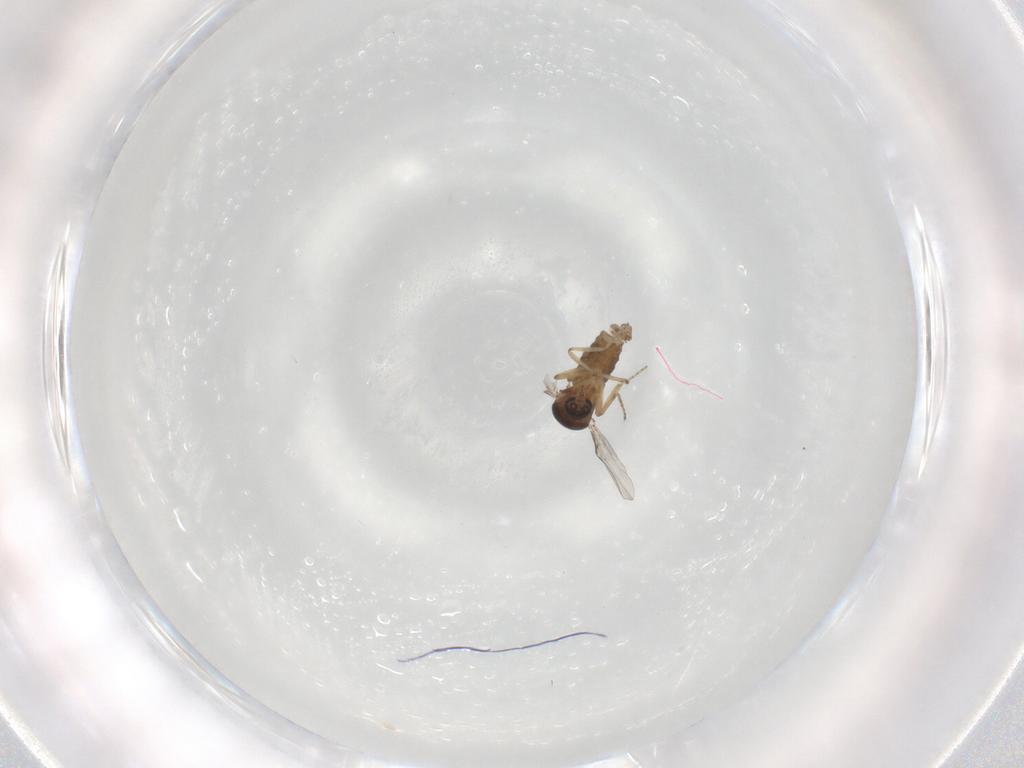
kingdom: Animalia
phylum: Arthropoda
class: Insecta
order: Diptera
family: Ceratopogonidae
